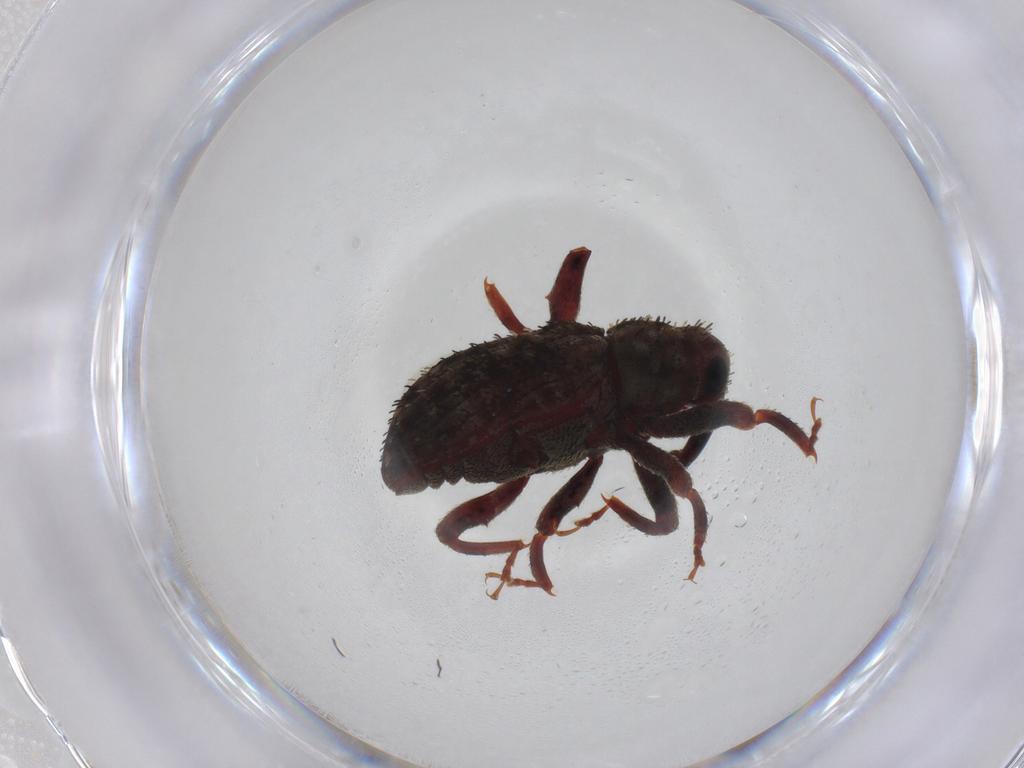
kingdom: Animalia
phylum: Arthropoda
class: Insecta
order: Coleoptera
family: Curculionidae
